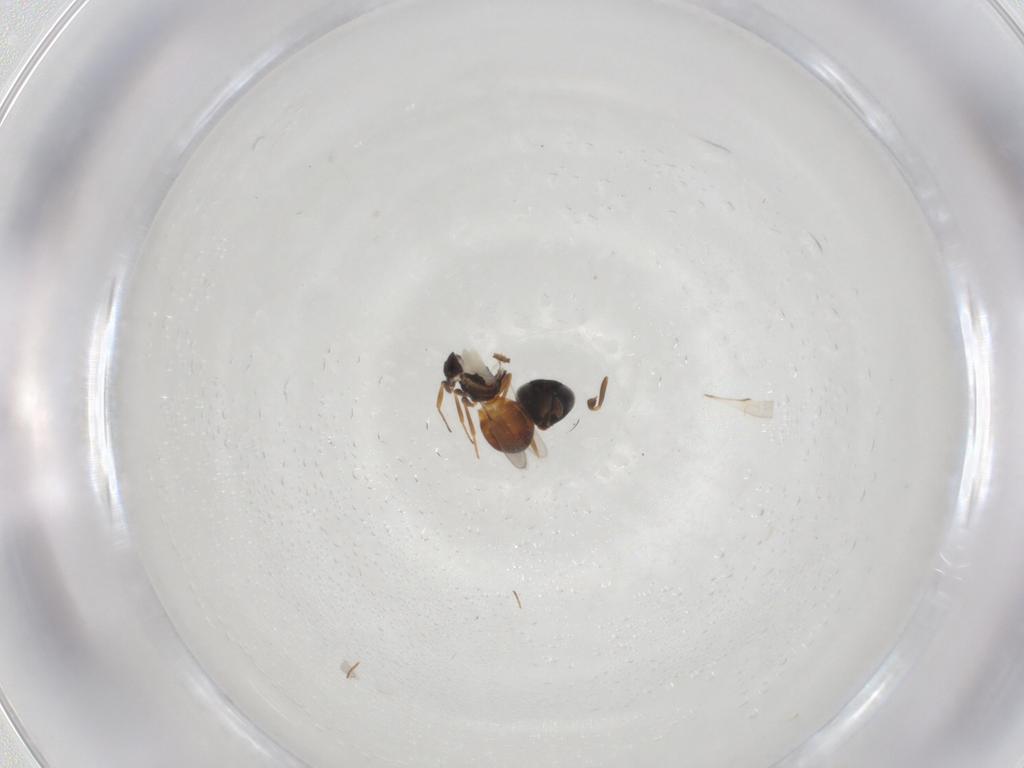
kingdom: Animalia
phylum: Arthropoda
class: Insecta
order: Hymenoptera
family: Scelionidae
